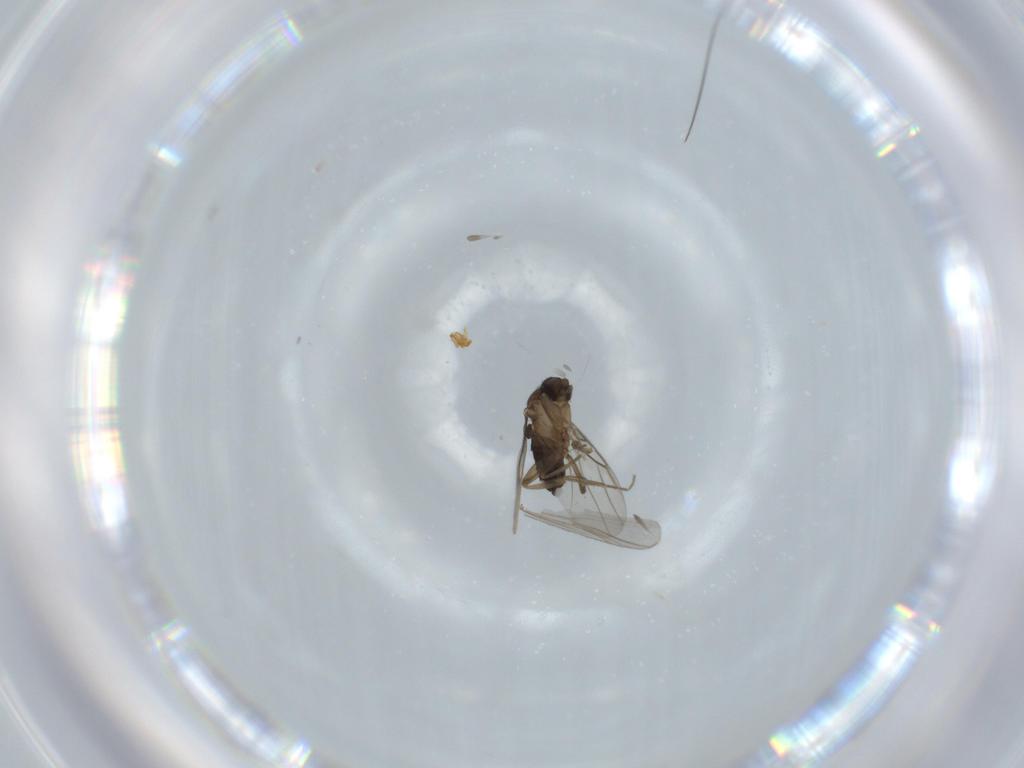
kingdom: Animalia
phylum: Arthropoda
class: Insecta
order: Diptera
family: Phoridae
